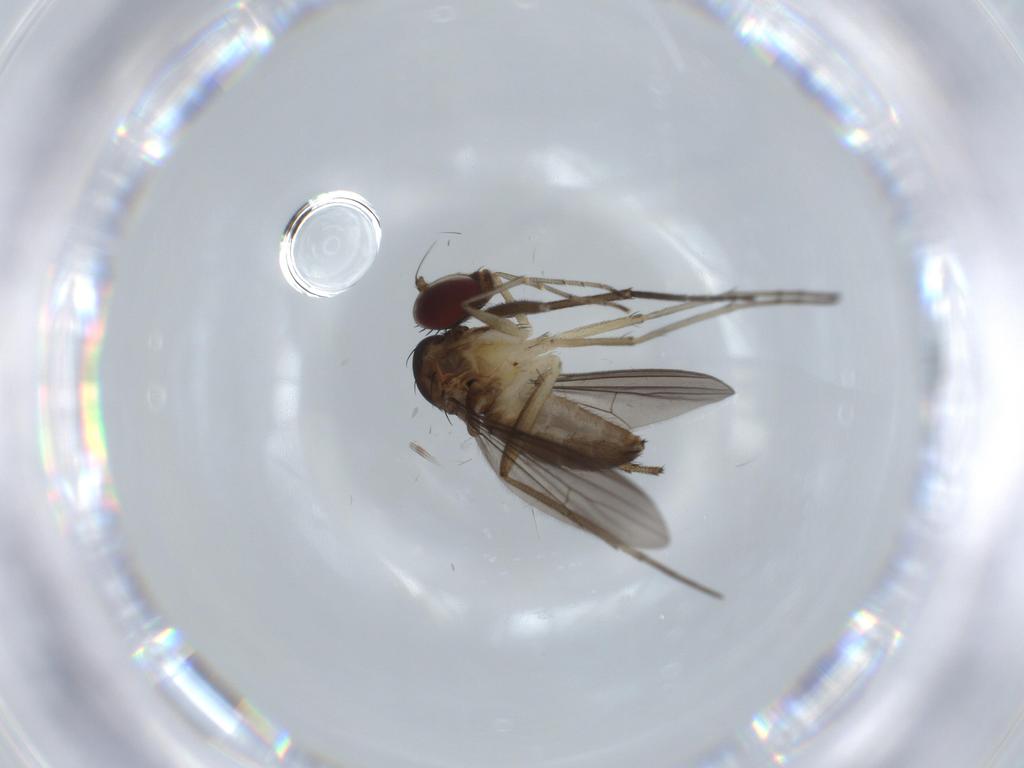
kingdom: Animalia
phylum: Arthropoda
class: Insecta
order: Diptera
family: Dolichopodidae
